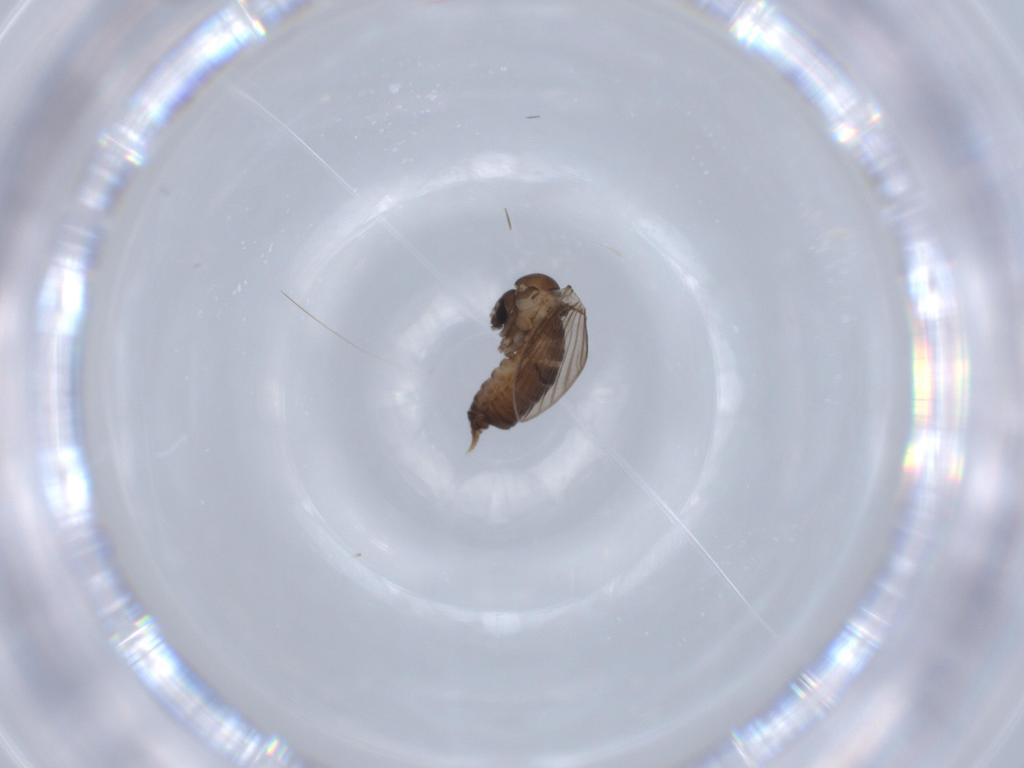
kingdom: Animalia
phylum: Arthropoda
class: Insecta
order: Diptera
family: Psychodidae
